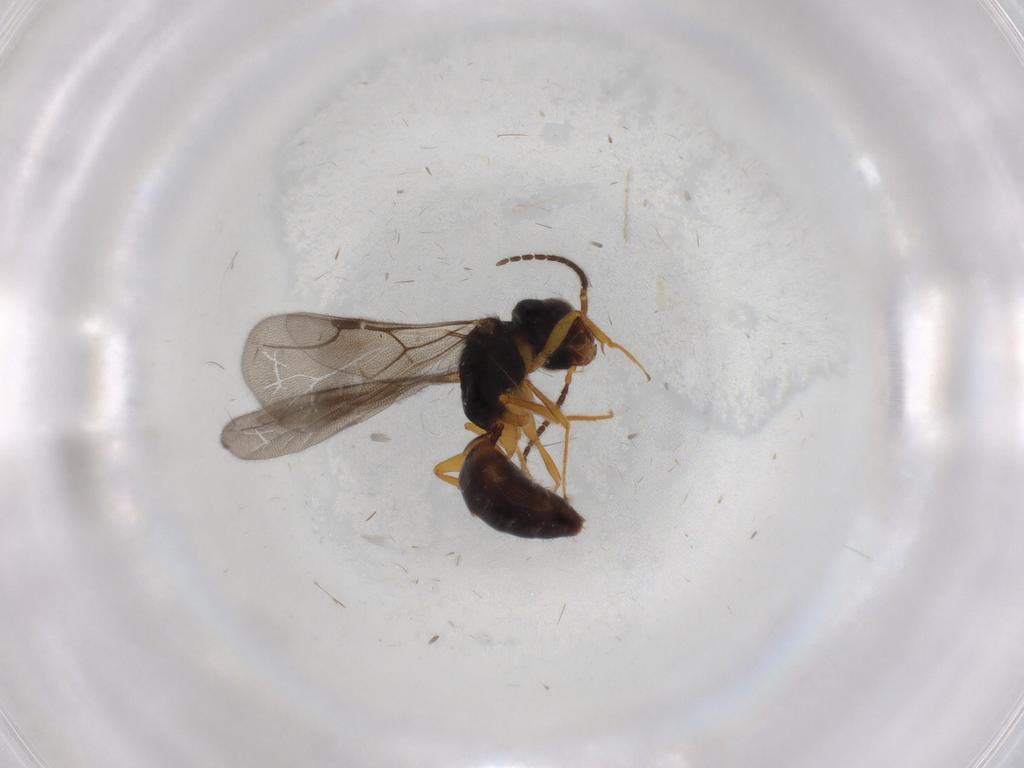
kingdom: Animalia
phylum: Arthropoda
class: Insecta
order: Hymenoptera
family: Bethylidae
